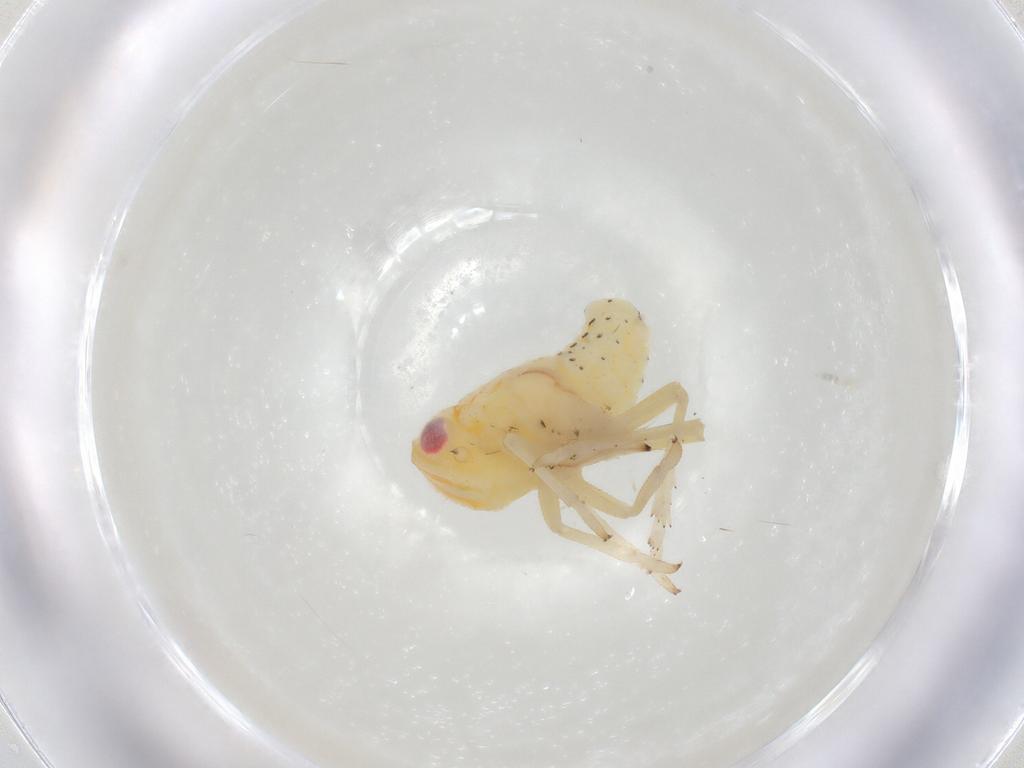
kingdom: Animalia
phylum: Arthropoda
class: Insecta
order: Hemiptera
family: Tropiduchidae
